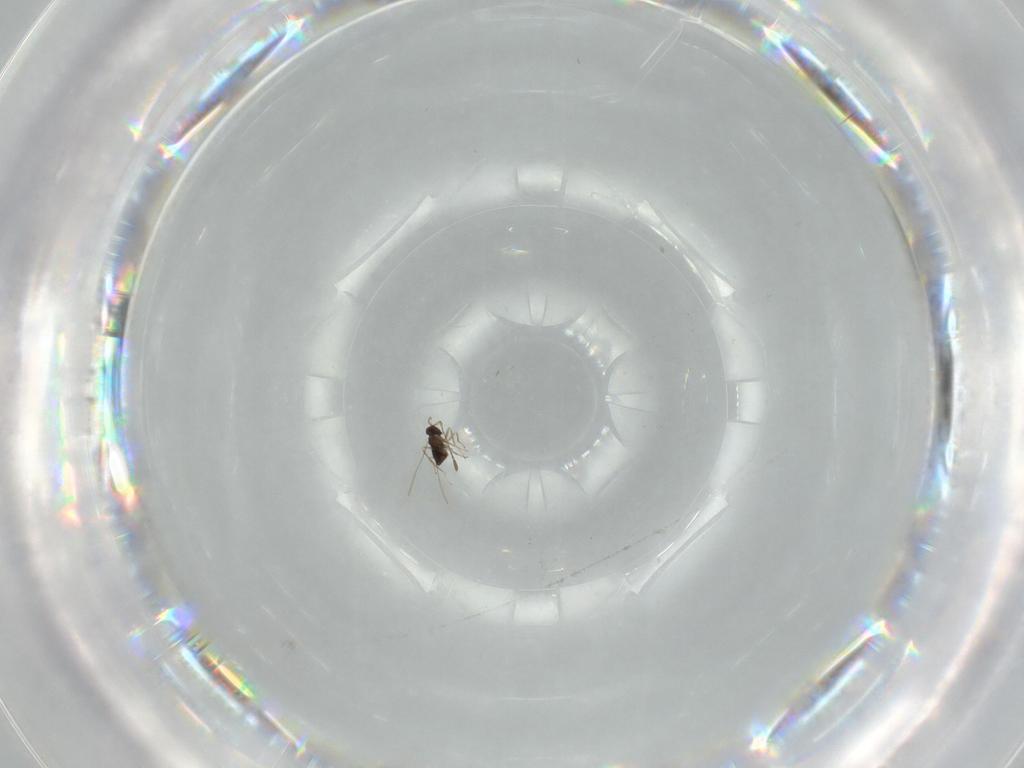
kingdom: Animalia
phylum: Arthropoda
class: Insecta
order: Hymenoptera
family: Mymaridae
